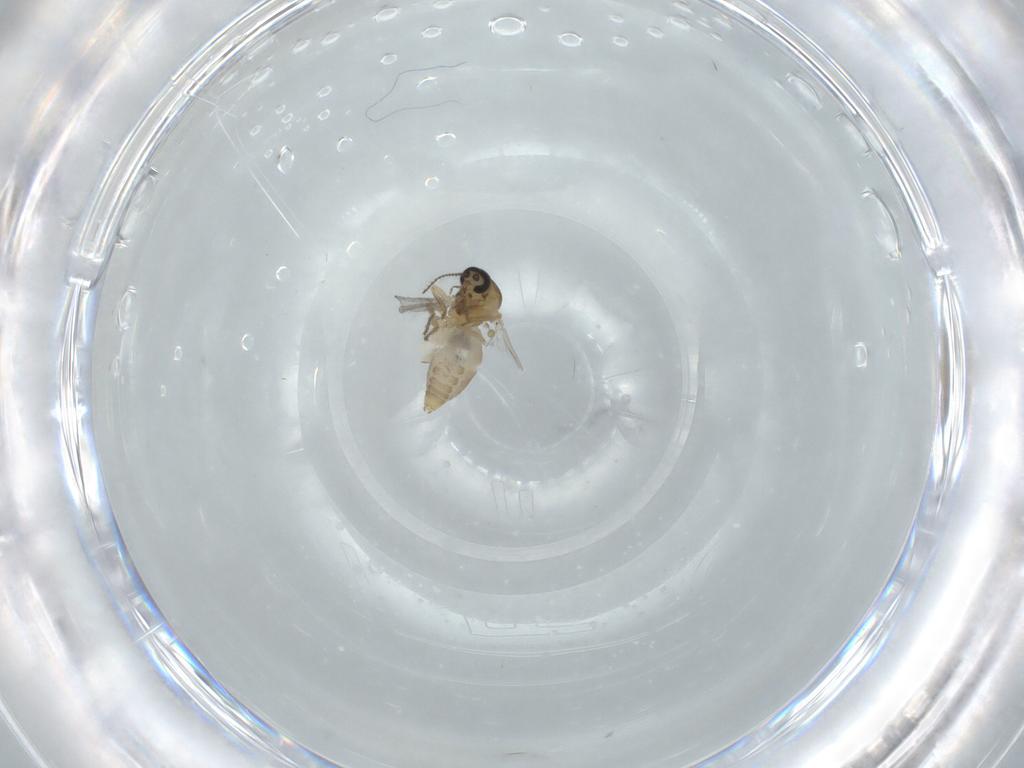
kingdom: Animalia
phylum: Arthropoda
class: Insecta
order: Diptera
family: Ceratopogonidae
